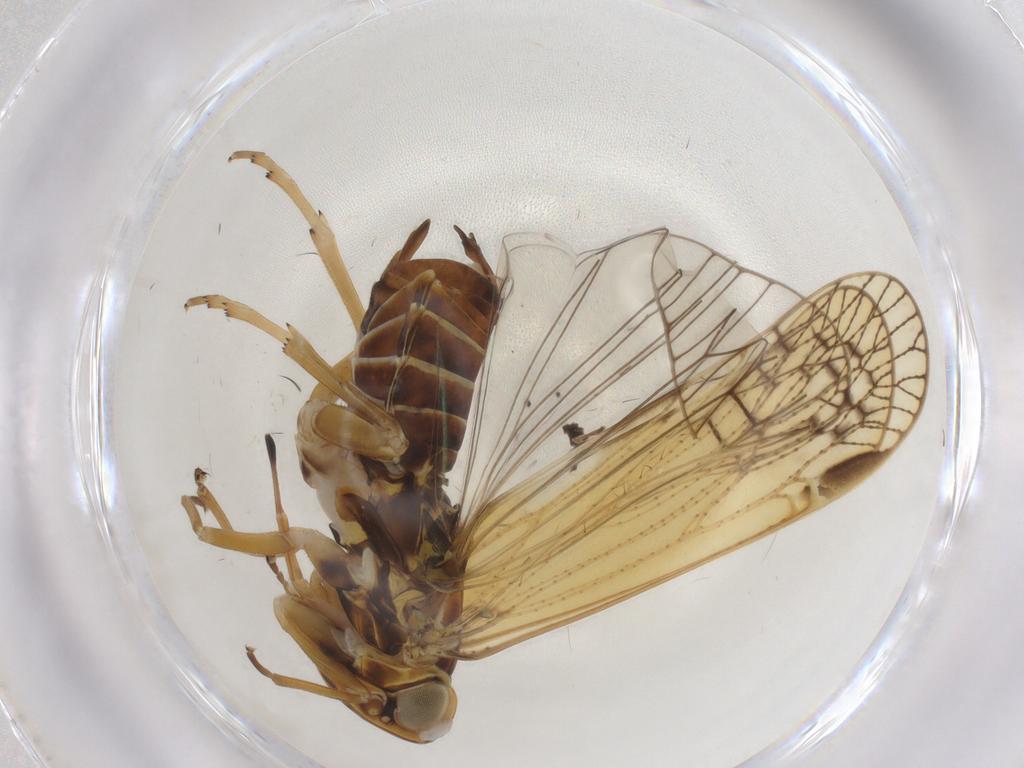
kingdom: Animalia
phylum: Arthropoda
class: Insecta
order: Hemiptera
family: Cixiidae
